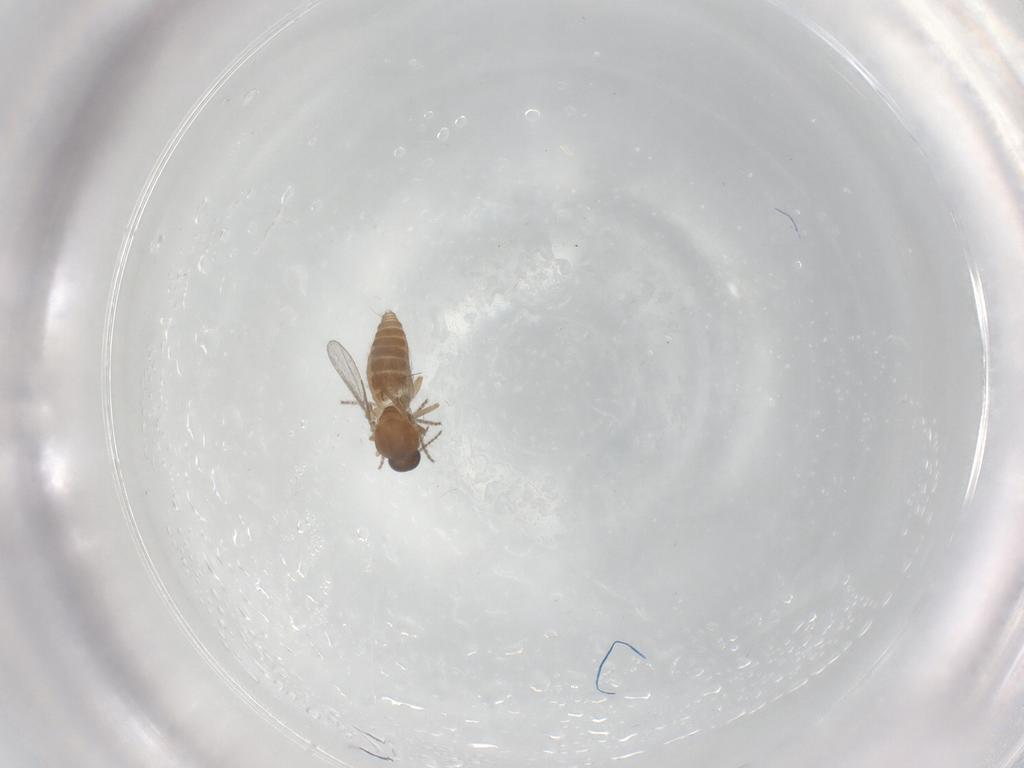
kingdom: Animalia
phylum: Arthropoda
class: Insecta
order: Diptera
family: Ceratopogonidae
